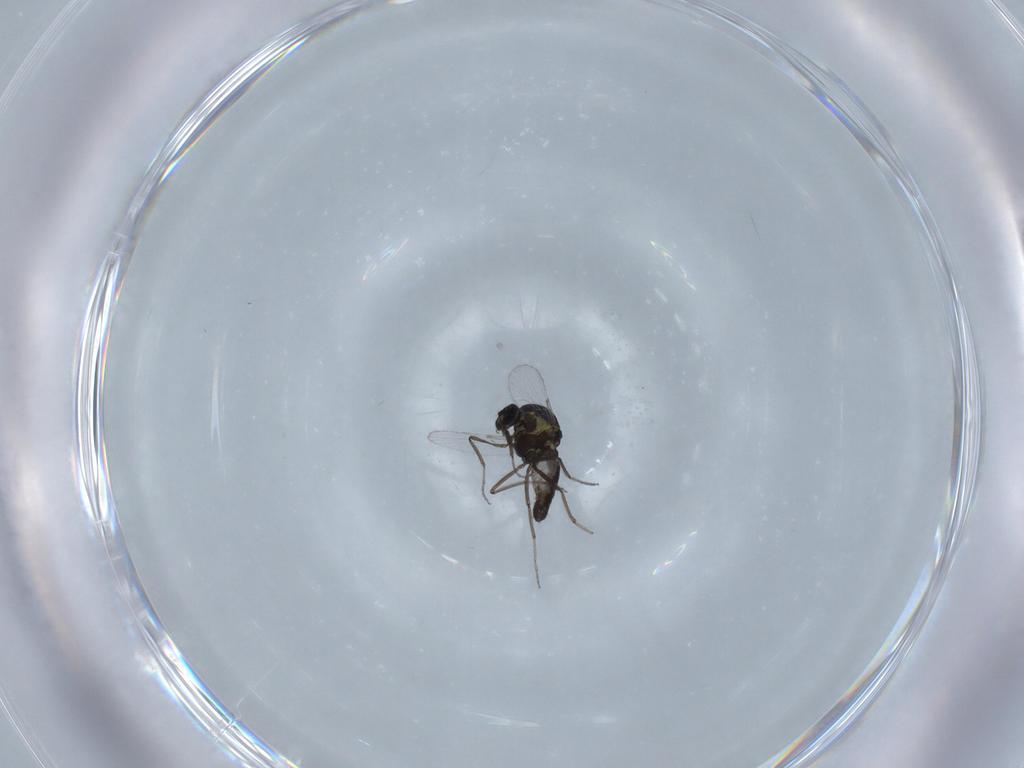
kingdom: Animalia
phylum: Arthropoda
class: Insecta
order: Diptera
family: Ceratopogonidae
